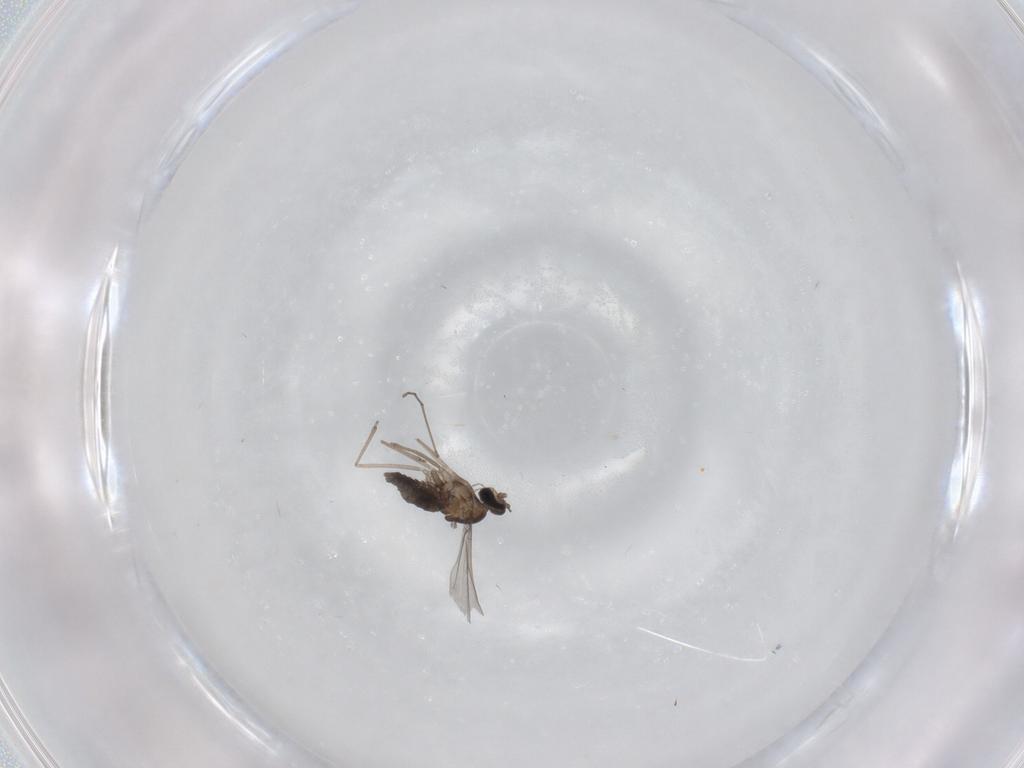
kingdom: Animalia
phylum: Arthropoda
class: Insecta
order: Diptera
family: Cecidomyiidae
